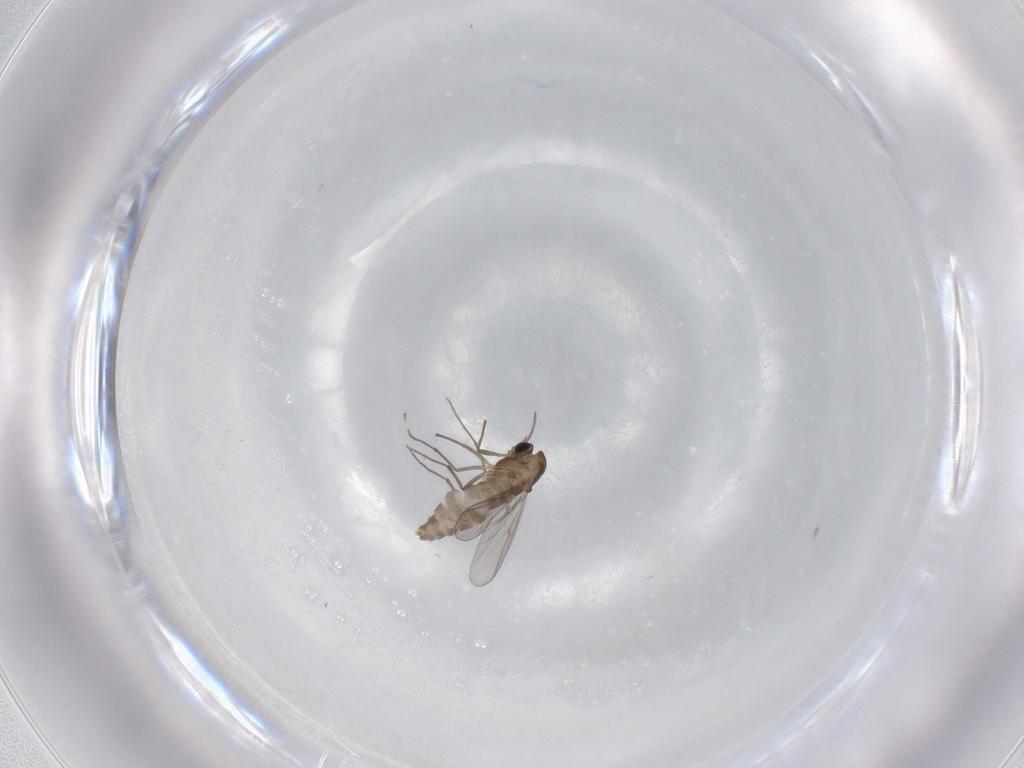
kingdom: Animalia
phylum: Arthropoda
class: Insecta
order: Diptera
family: Chironomidae
